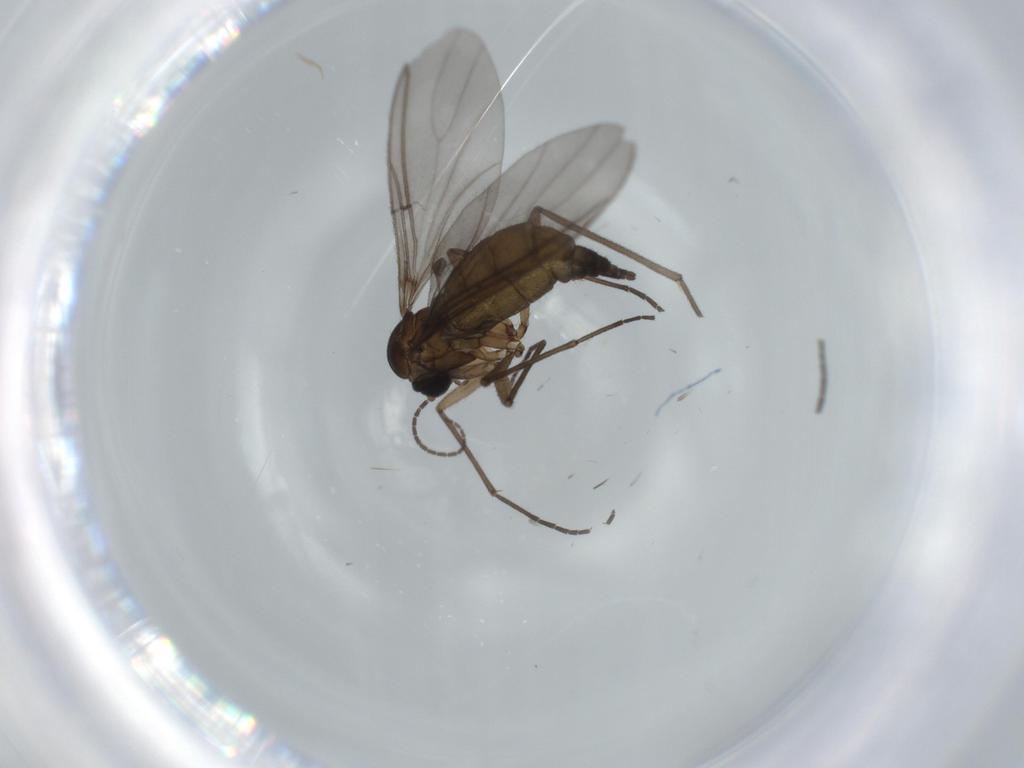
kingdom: Animalia
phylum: Arthropoda
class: Insecta
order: Diptera
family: Sciaridae
